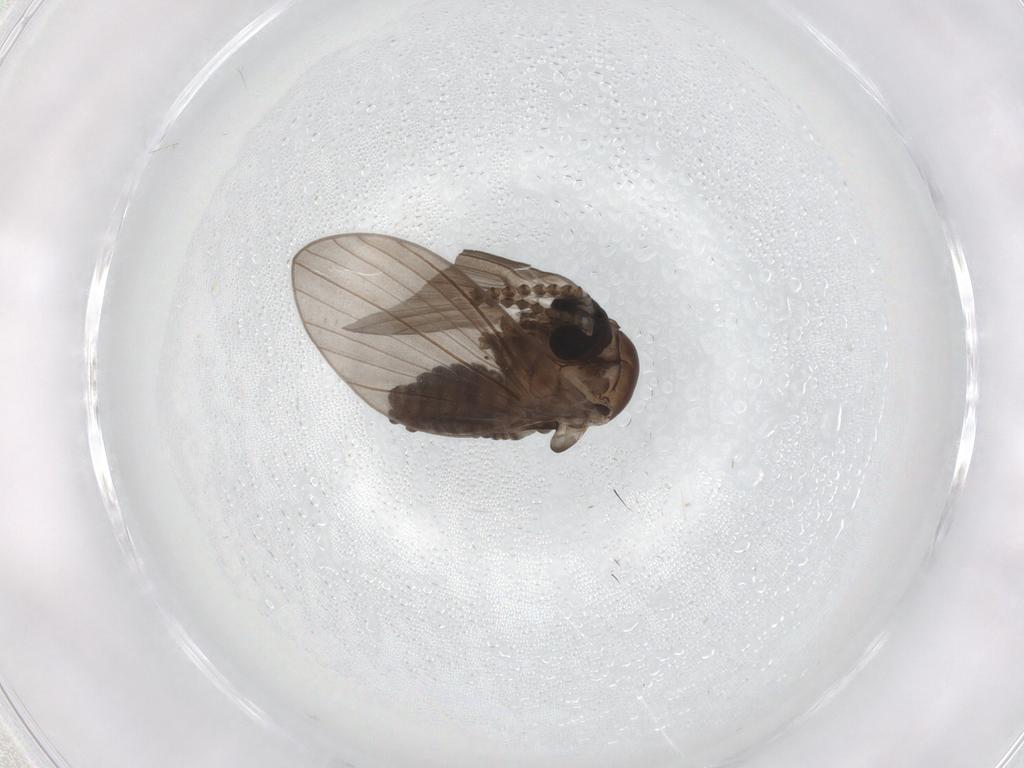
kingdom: Animalia
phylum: Arthropoda
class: Insecta
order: Diptera
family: Psychodidae
